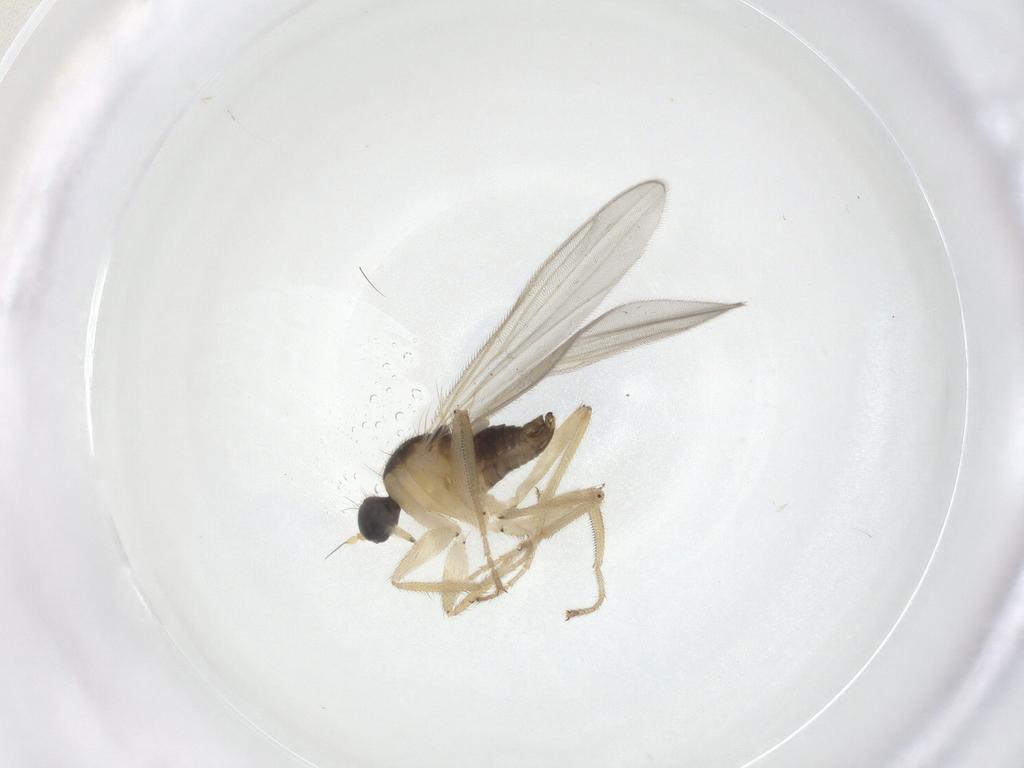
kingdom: Animalia
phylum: Arthropoda
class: Insecta
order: Diptera
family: Hybotidae
